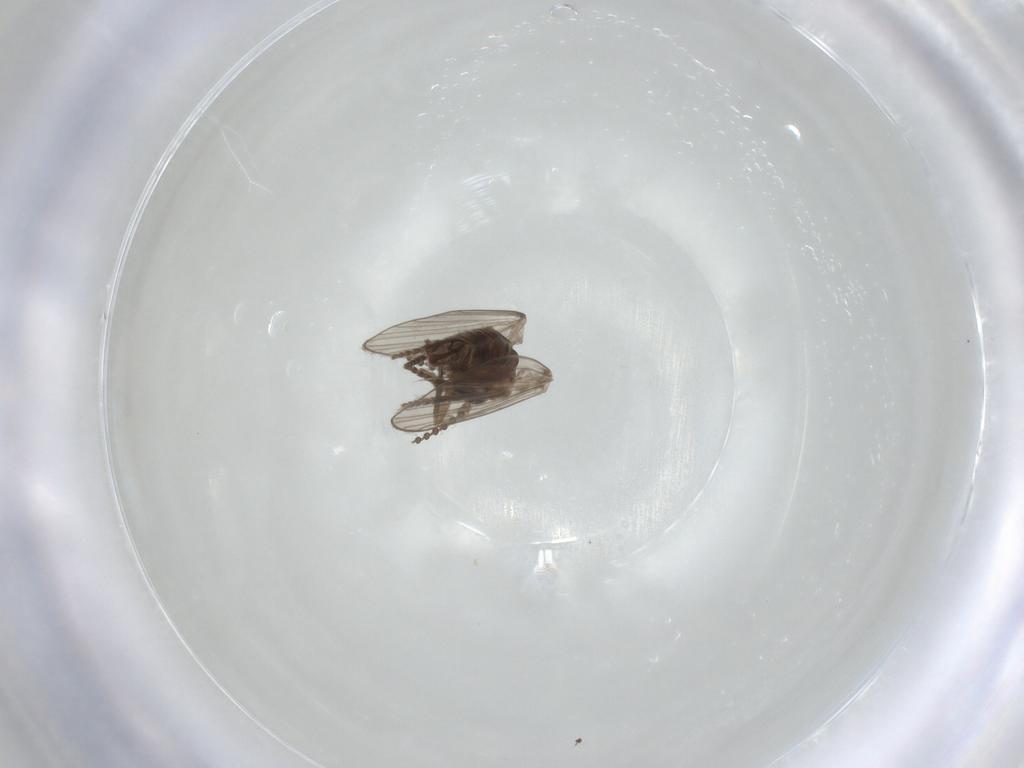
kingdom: Animalia
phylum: Arthropoda
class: Insecta
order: Diptera
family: Psychodidae
